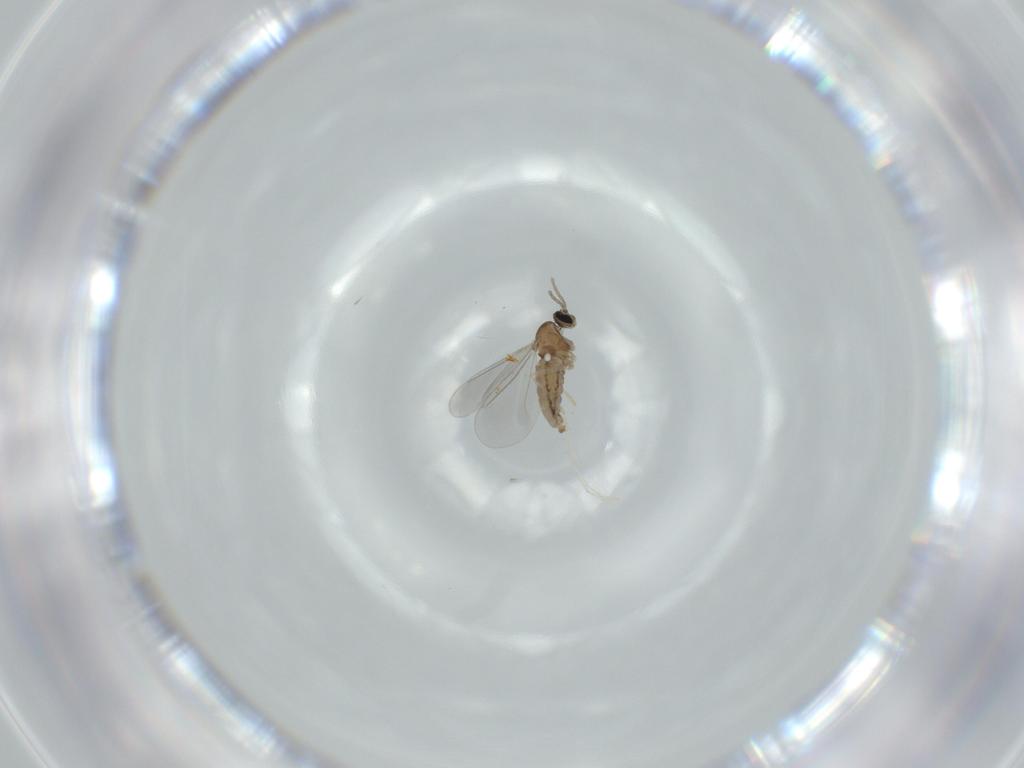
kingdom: Animalia
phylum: Arthropoda
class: Insecta
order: Diptera
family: Cecidomyiidae
